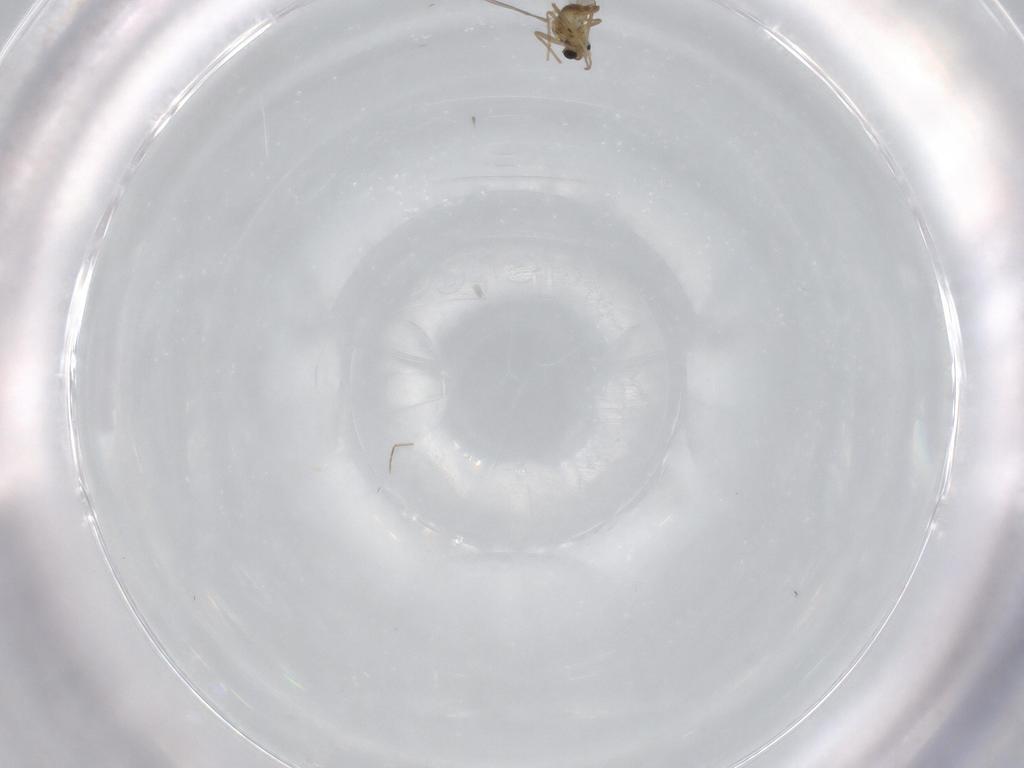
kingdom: Animalia
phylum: Arthropoda
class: Insecta
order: Diptera
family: Chironomidae
